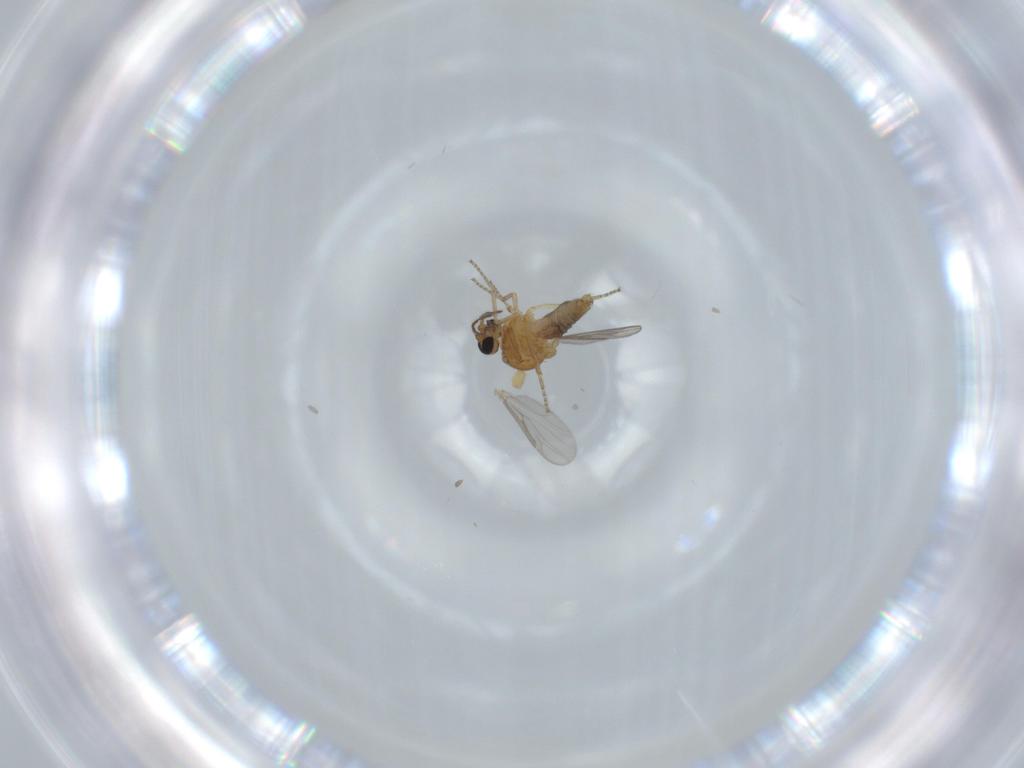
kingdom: Animalia
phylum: Arthropoda
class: Insecta
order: Diptera
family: Ceratopogonidae
